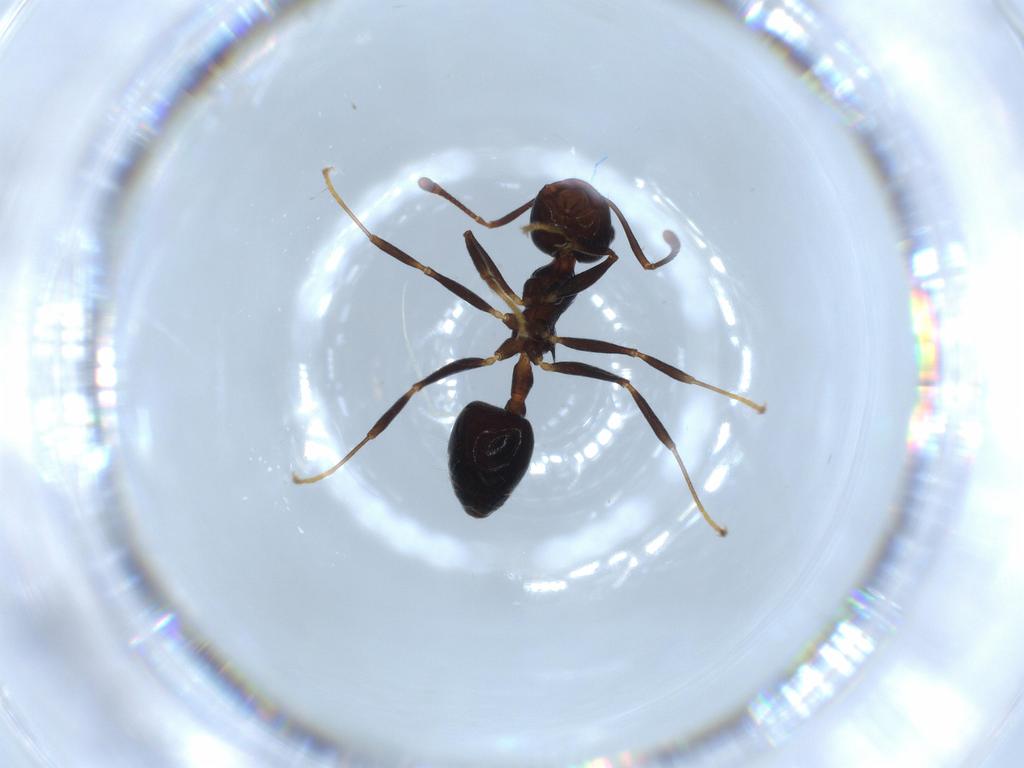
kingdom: Animalia
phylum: Arthropoda
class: Insecta
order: Hymenoptera
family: Formicidae
